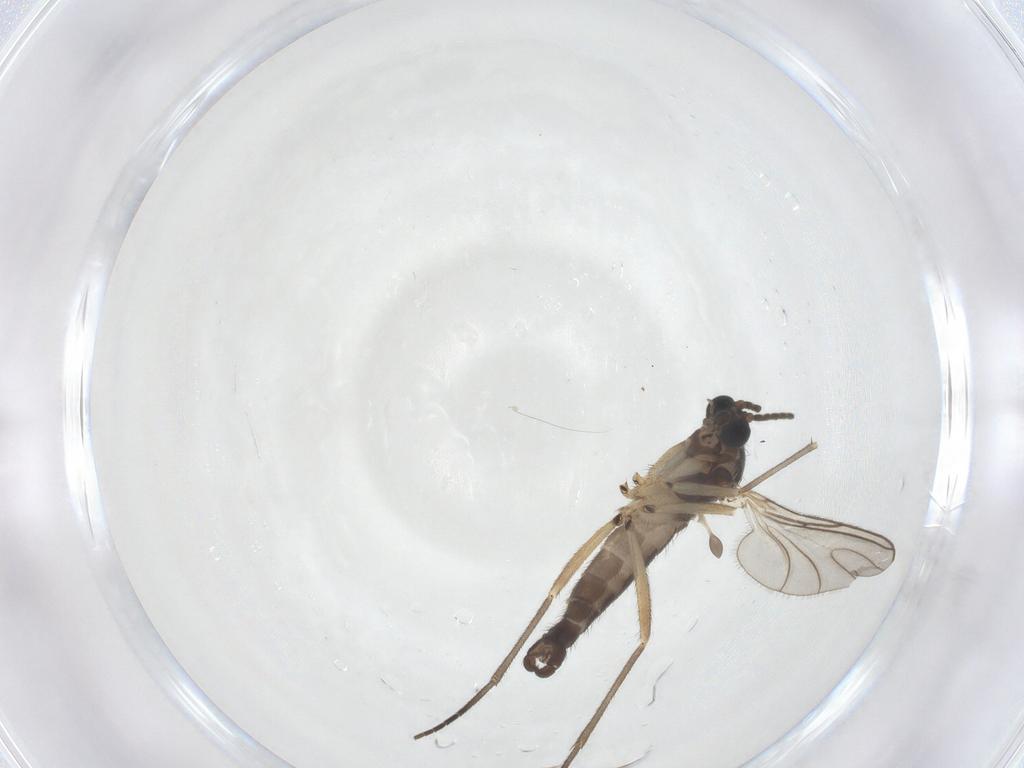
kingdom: Animalia
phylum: Arthropoda
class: Insecta
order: Diptera
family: Sciaridae
